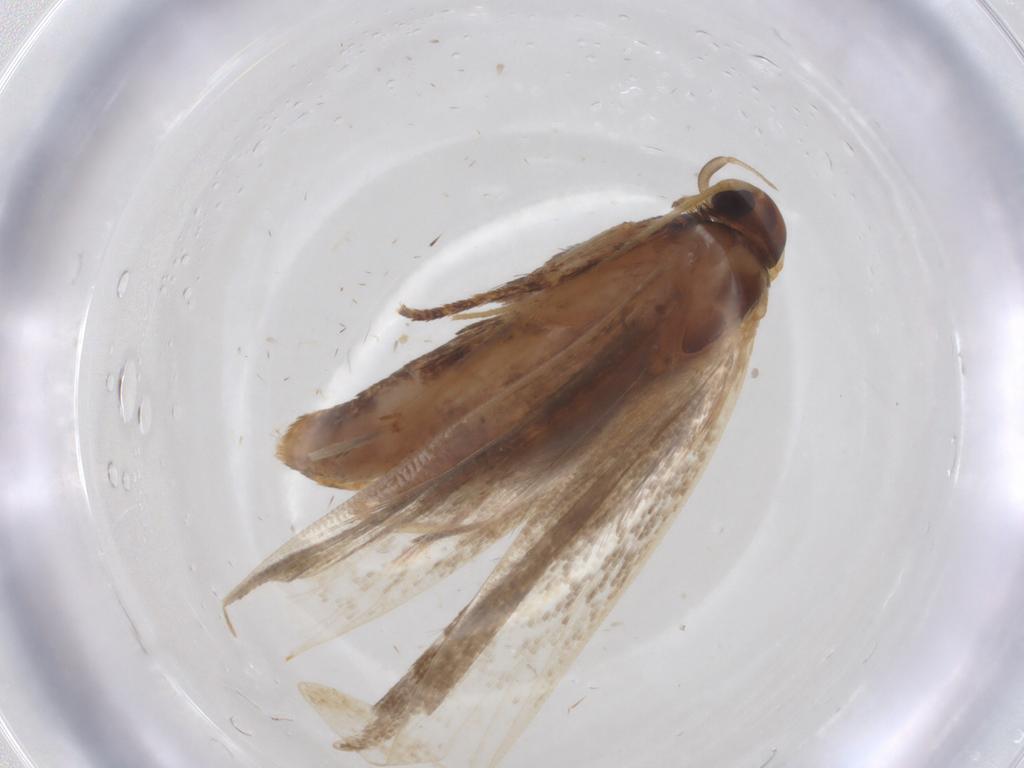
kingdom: Animalia
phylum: Arthropoda
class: Insecta
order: Lepidoptera
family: Gelechiidae
